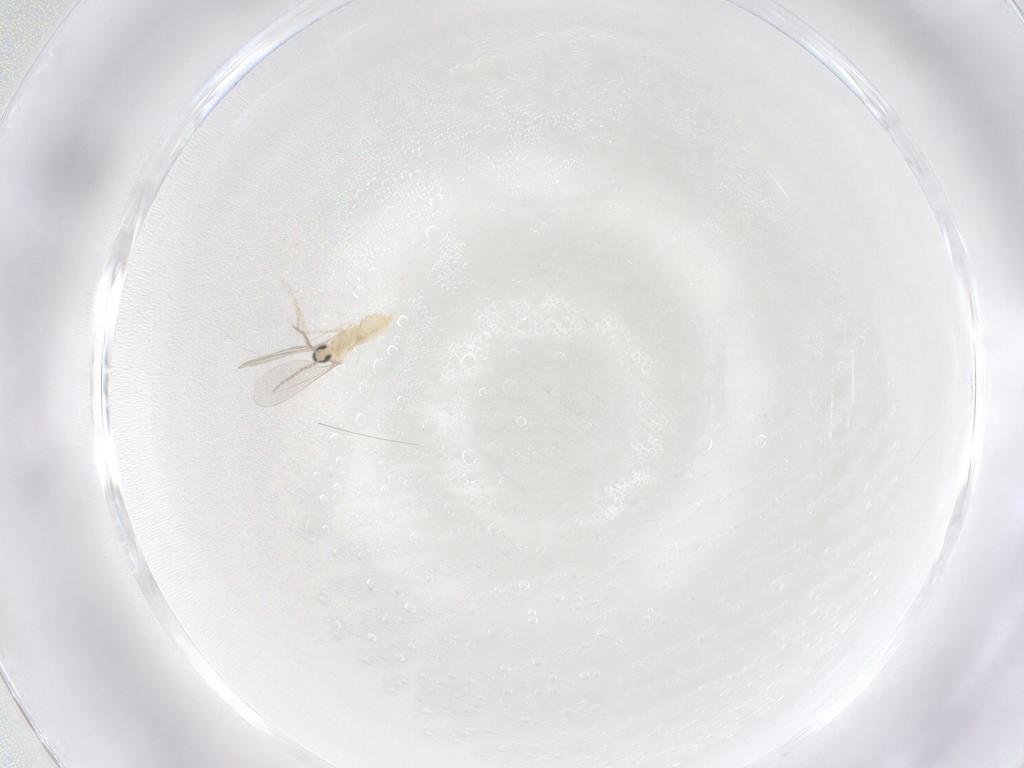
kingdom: Animalia
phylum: Arthropoda
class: Insecta
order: Diptera
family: Cecidomyiidae
